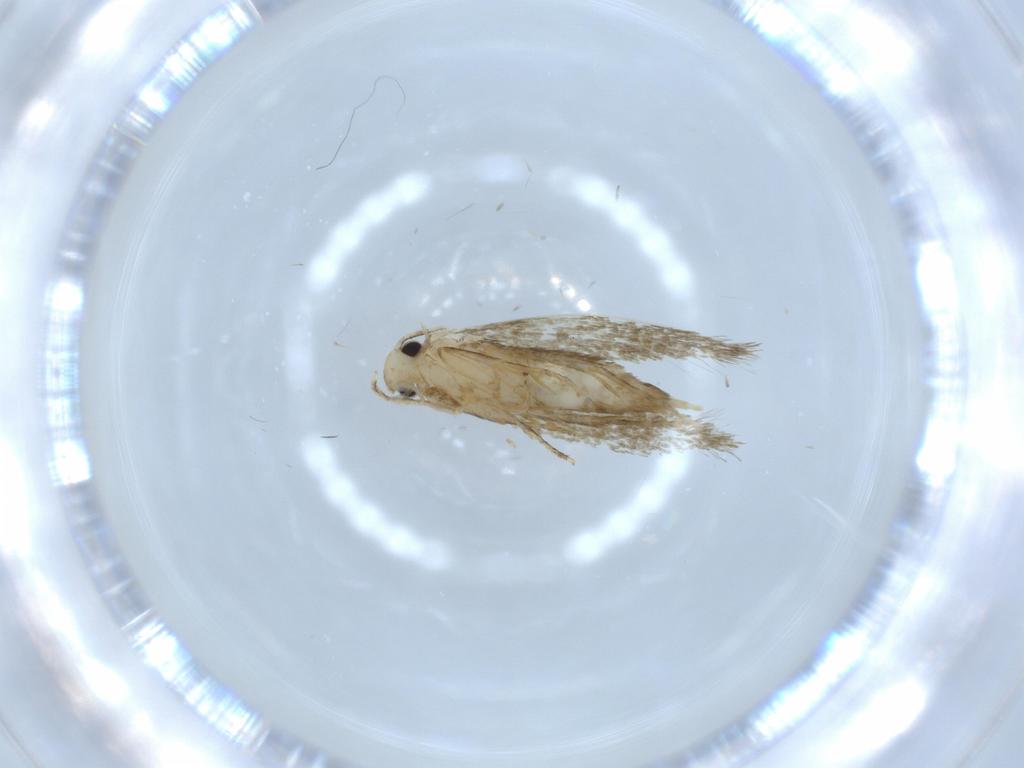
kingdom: Animalia
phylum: Arthropoda
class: Insecta
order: Lepidoptera
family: Tineidae
